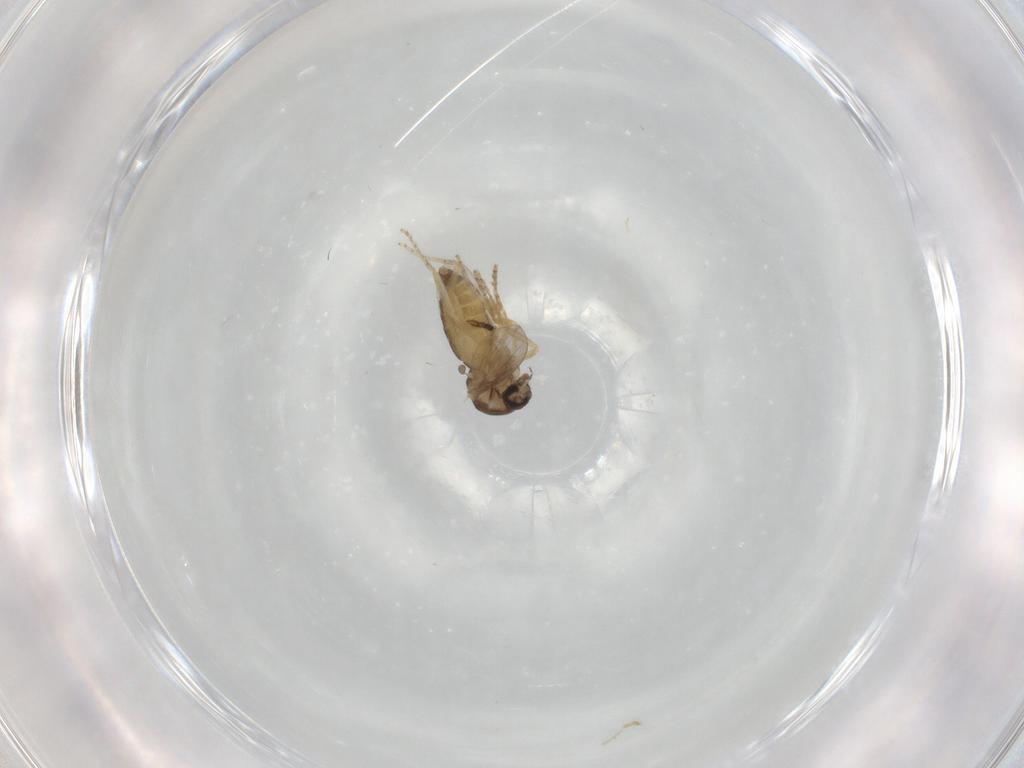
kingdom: Animalia
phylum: Arthropoda
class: Insecta
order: Diptera
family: Ceratopogonidae
